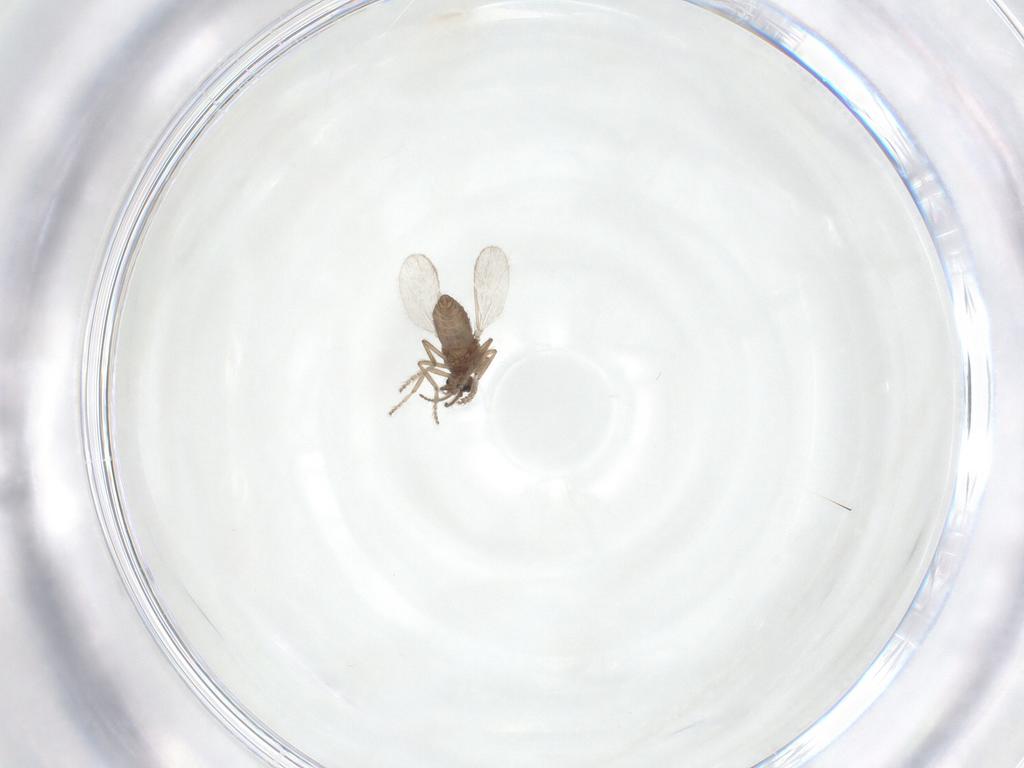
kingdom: Animalia
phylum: Arthropoda
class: Insecta
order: Diptera
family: Ceratopogonidae
